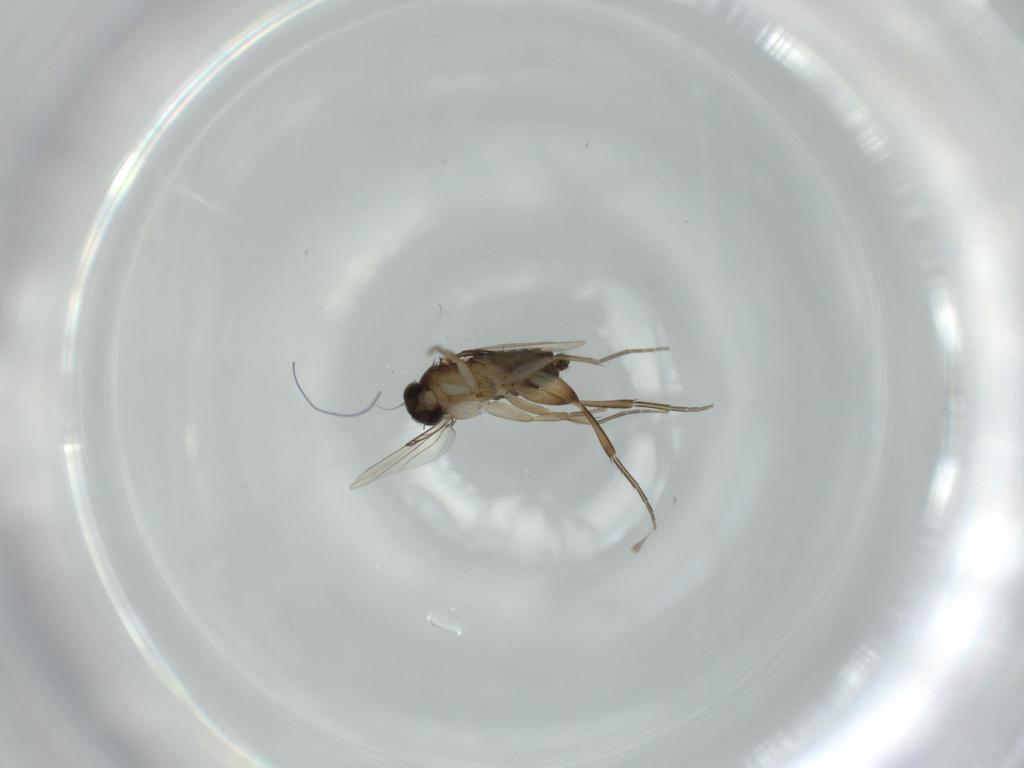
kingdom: Animalia
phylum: Arthropoda
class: Insecta
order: Diptera
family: Phoridae
